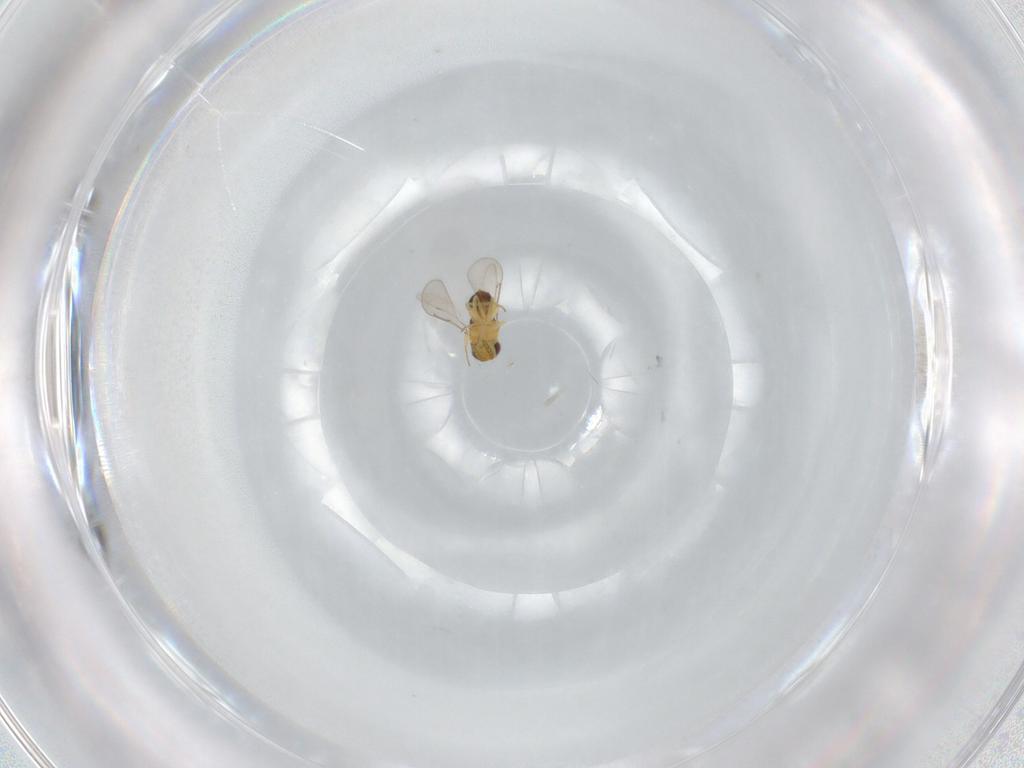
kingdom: Animalia
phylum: Arthropoda
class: Insecta
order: Hymenoptera
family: Aphelinidae
